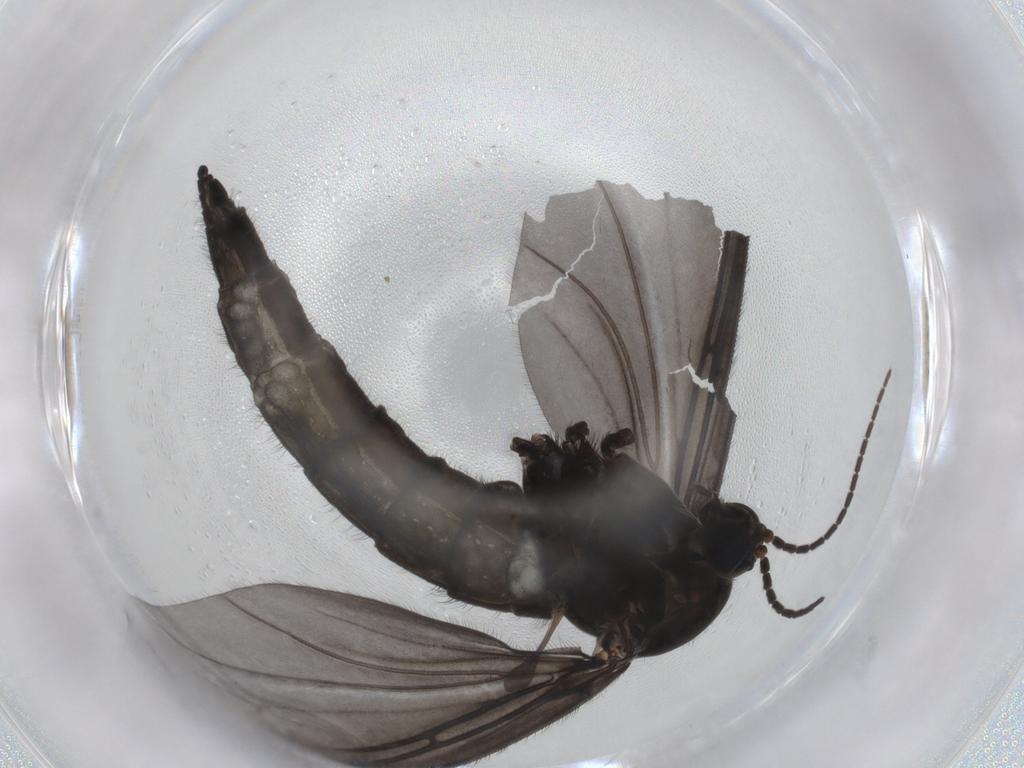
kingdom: Animalia
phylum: Arthropoda
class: Insecta
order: Diptera
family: Sciaridae
